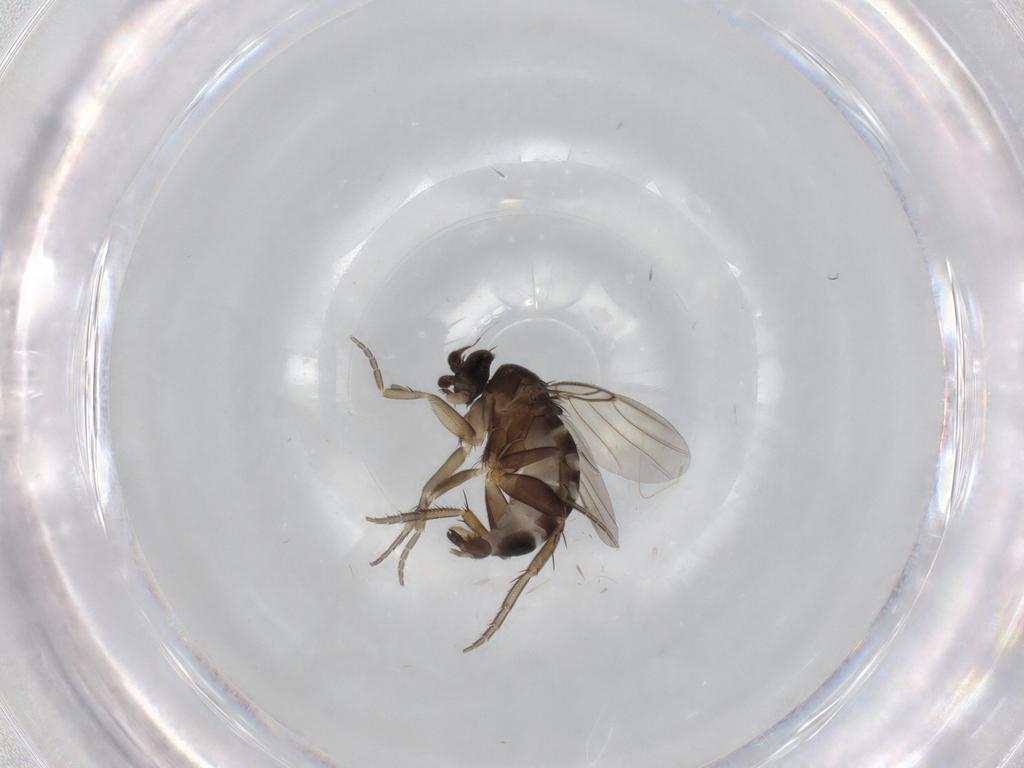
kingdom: Animalia
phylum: Arthropoda
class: Insecta
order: Diptera
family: Phoridae
